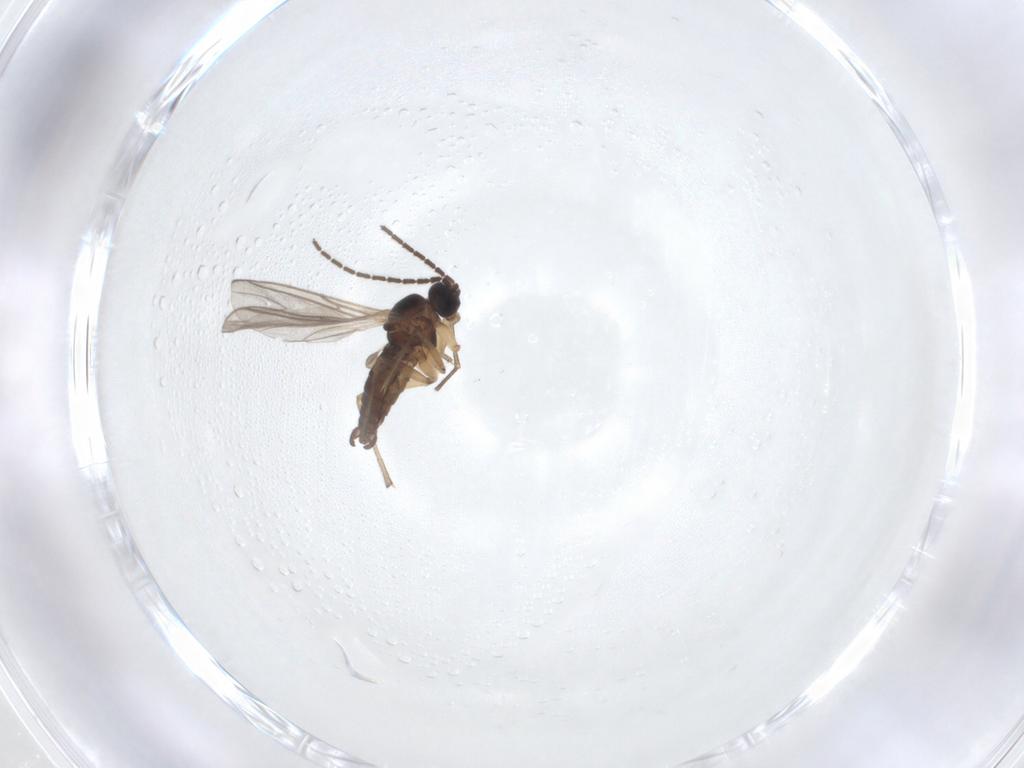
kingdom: Animalia
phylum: Arthropoda
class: Insecta
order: Diptera
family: Sciaridae
